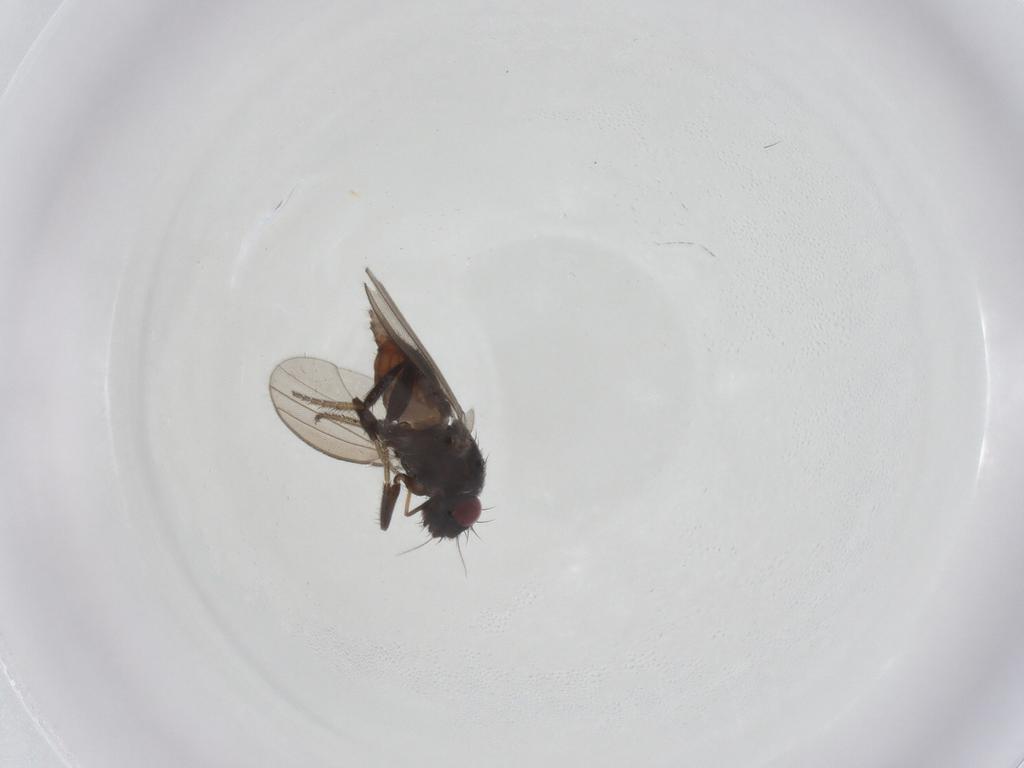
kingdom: Animalia
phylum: Arthropoda
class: Insecta
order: Diptera
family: Milichiidae
